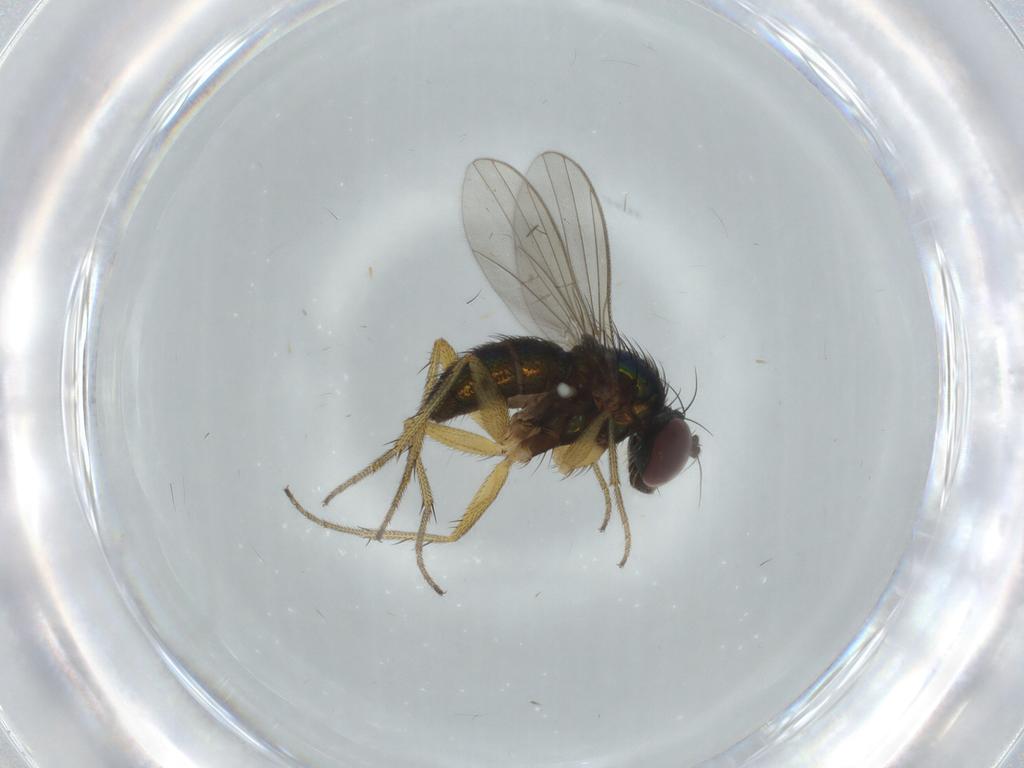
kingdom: Animalia
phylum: Arthropoda
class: Insecta
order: Diptera
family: Dolichopodidae
